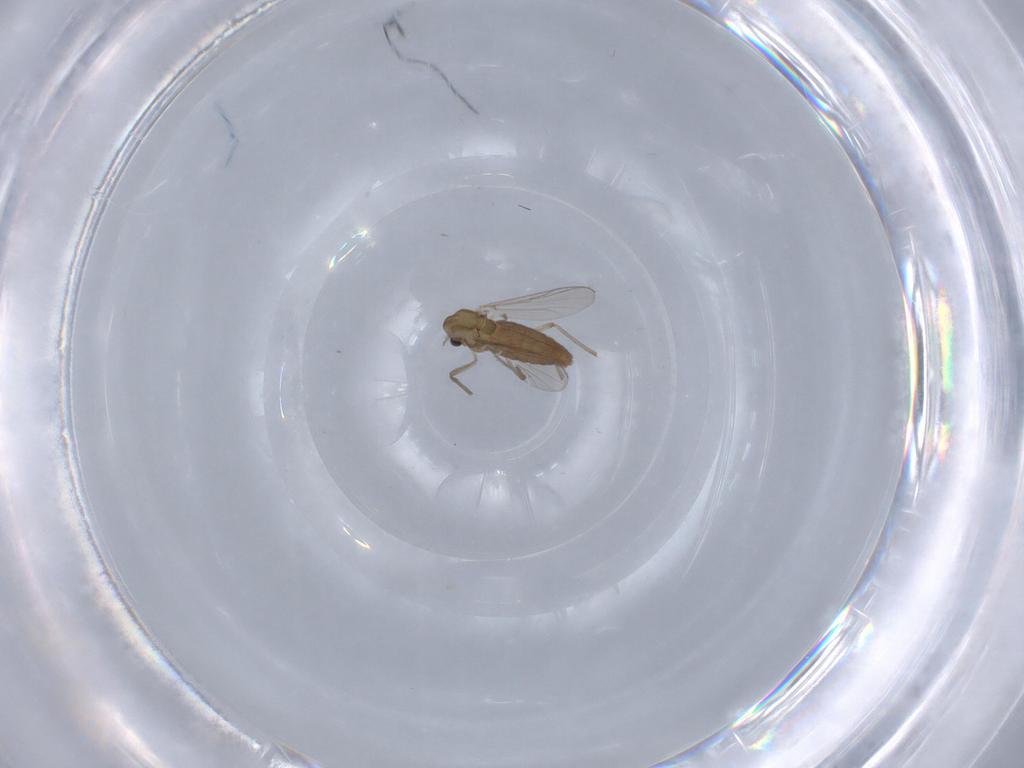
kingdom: Animalia
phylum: Arthropoda
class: Insecta
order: Diptera
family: Chironomidae
